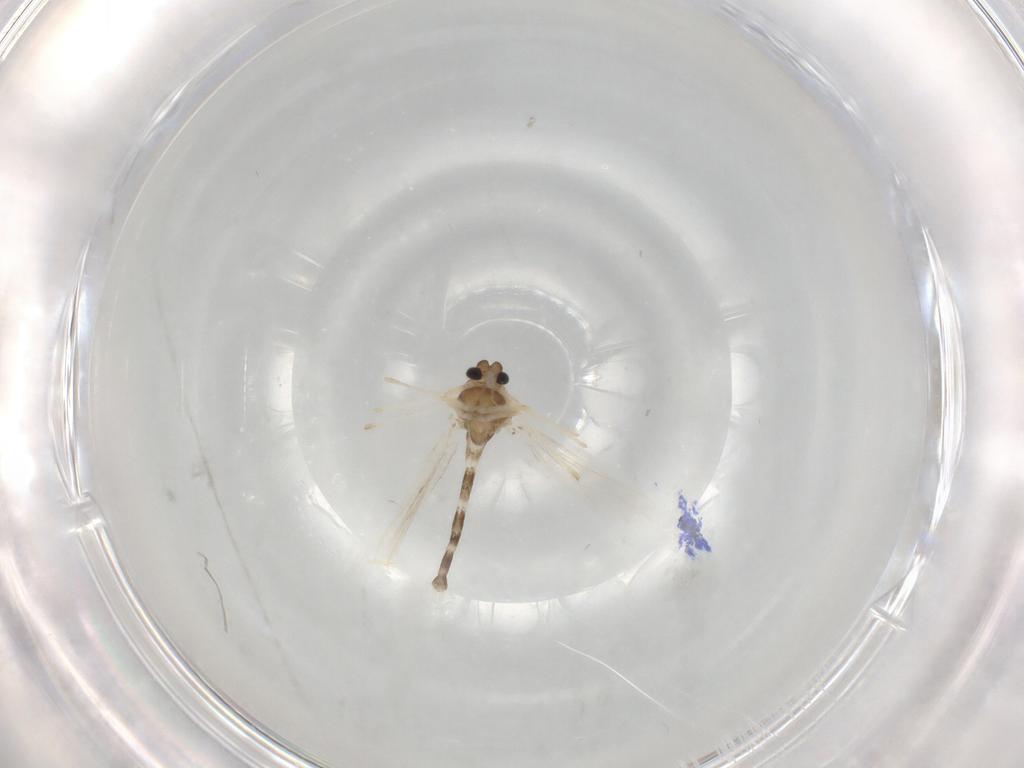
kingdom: Animalia
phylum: Arthropoda
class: Insecta
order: Diptera
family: Chironomidae
